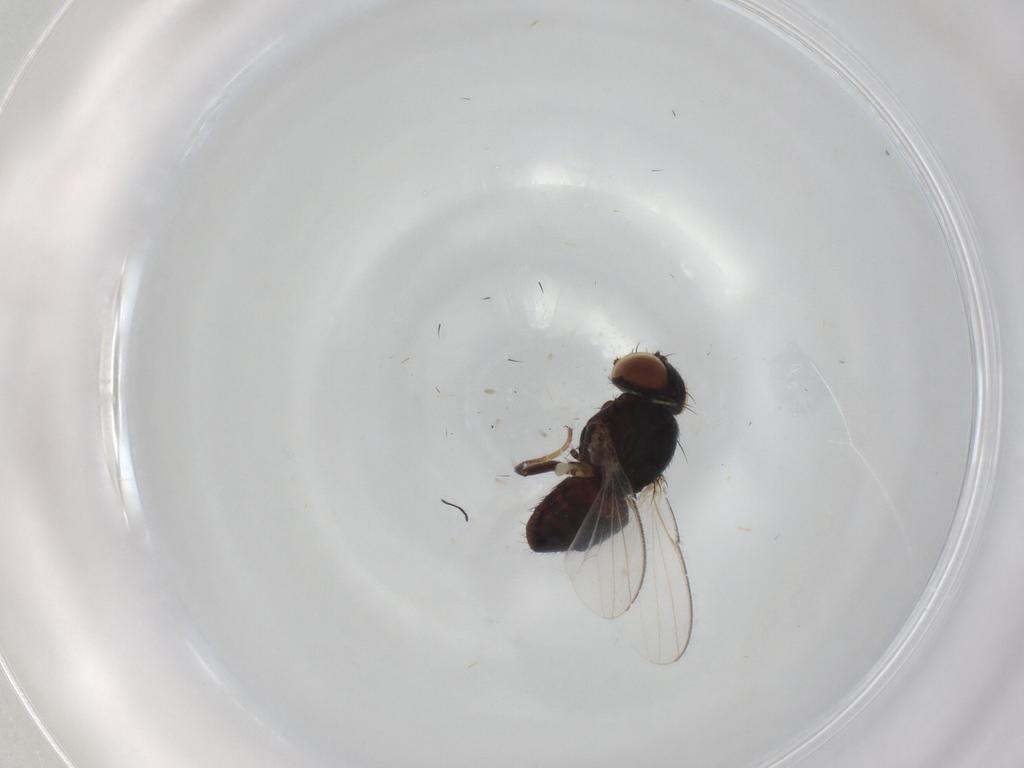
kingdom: Animalia
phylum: Arthropoda
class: Insecta
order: Diptera
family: Milichiidae
